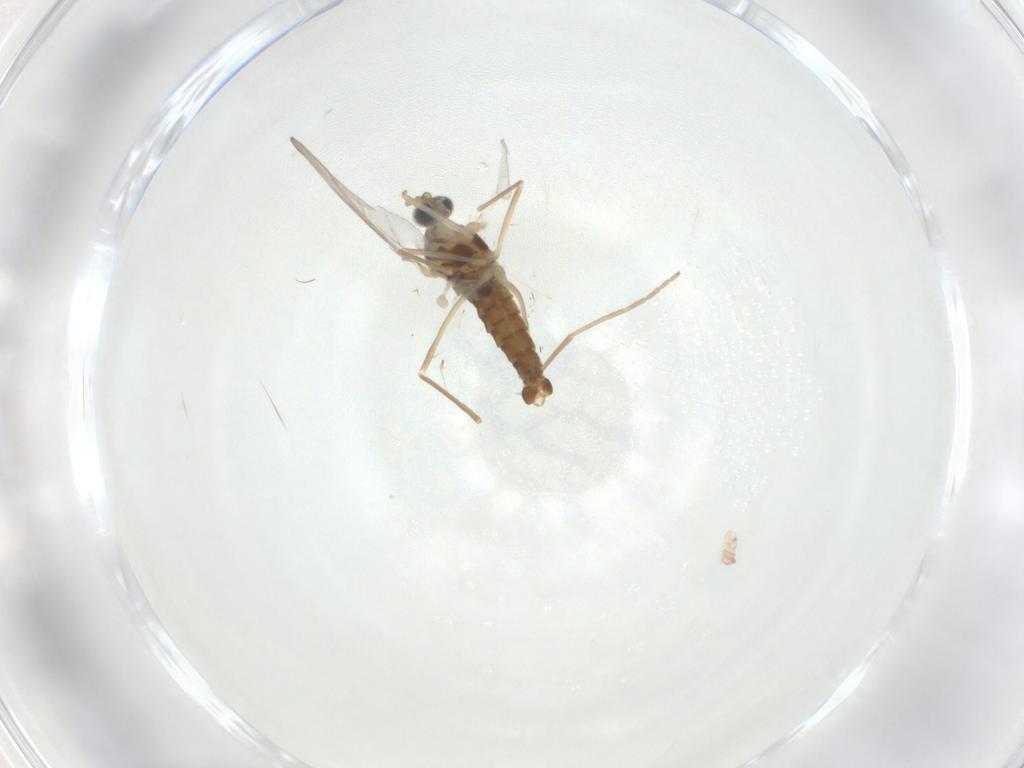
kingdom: Animalia
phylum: Arthropoda
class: Insecta
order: Diptera
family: Cecidomyiidae
